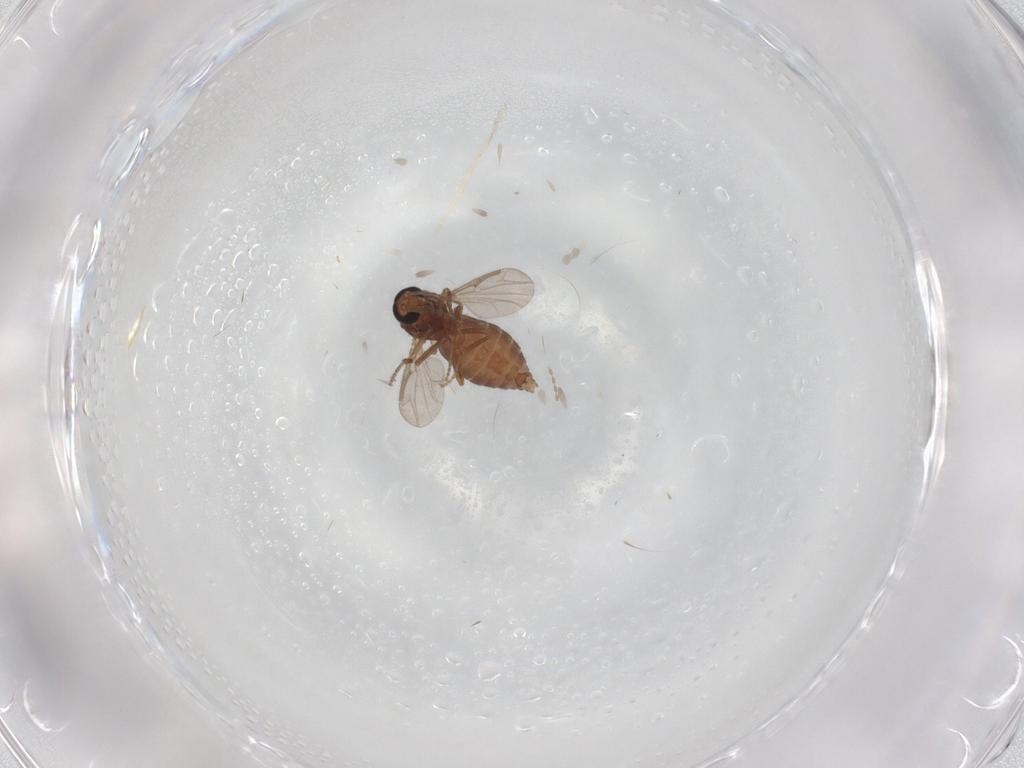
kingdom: Animalia
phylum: Arthropoda
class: Insecta
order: Diptera
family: Ceratopogonidae
